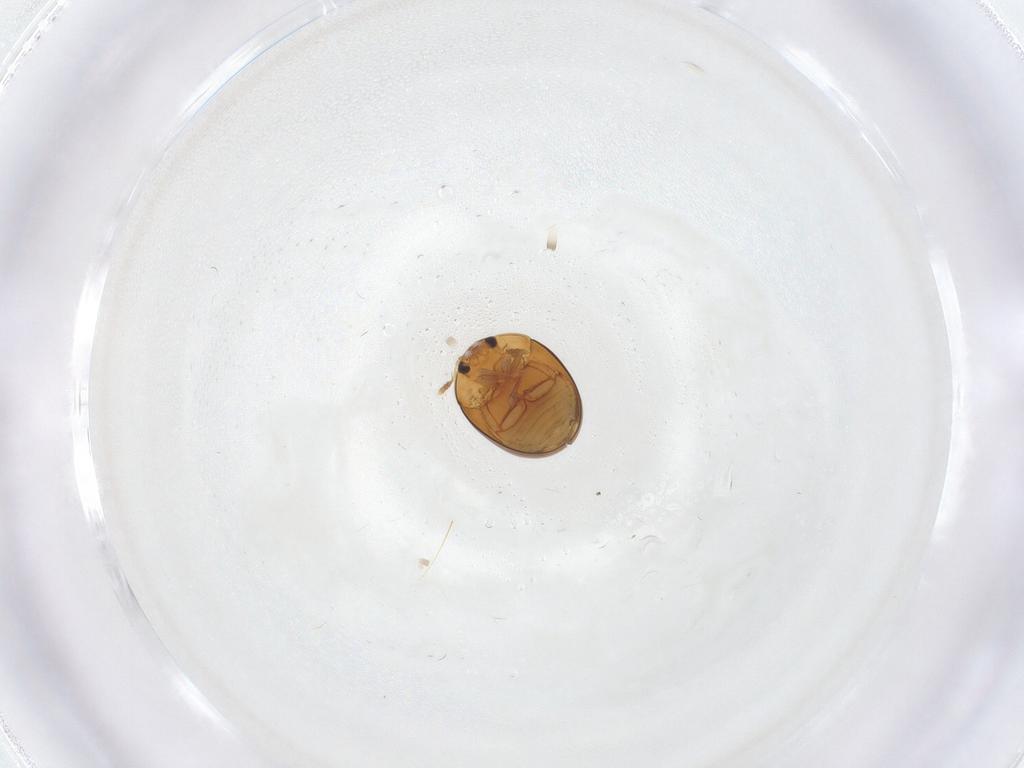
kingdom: Animalia
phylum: Arthropoda
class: Insecta
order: Coleoptera
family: Phalacridae
